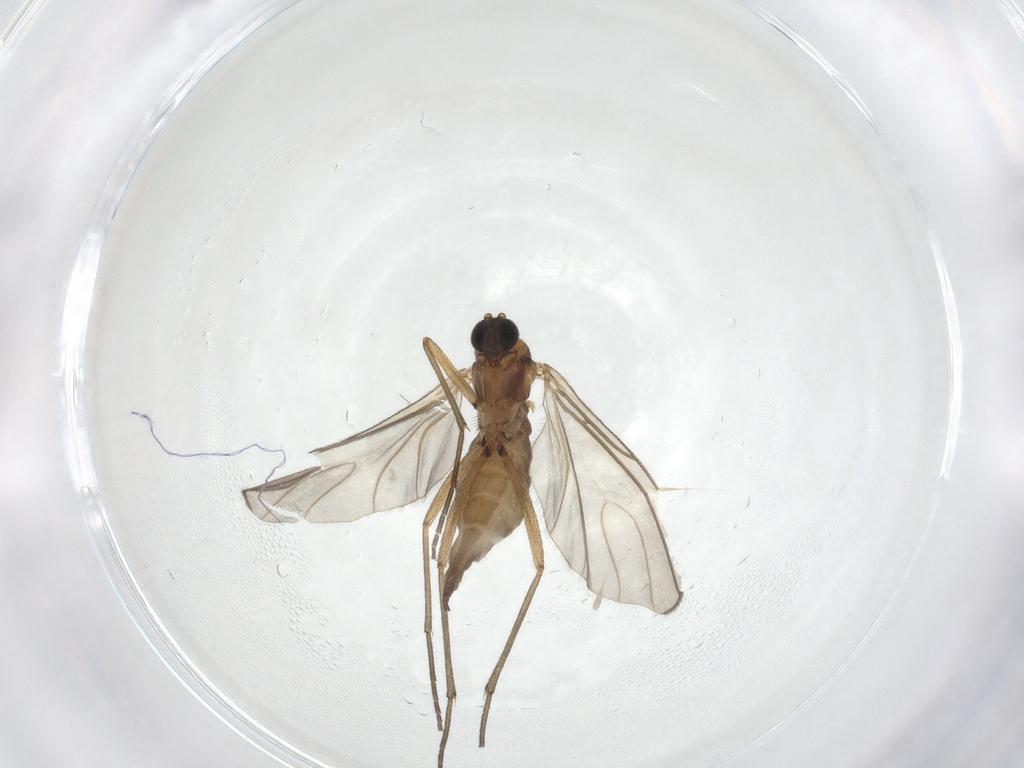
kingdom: Animalia
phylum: Arthropoda
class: Insecta
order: Diptera
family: Sciaridae
